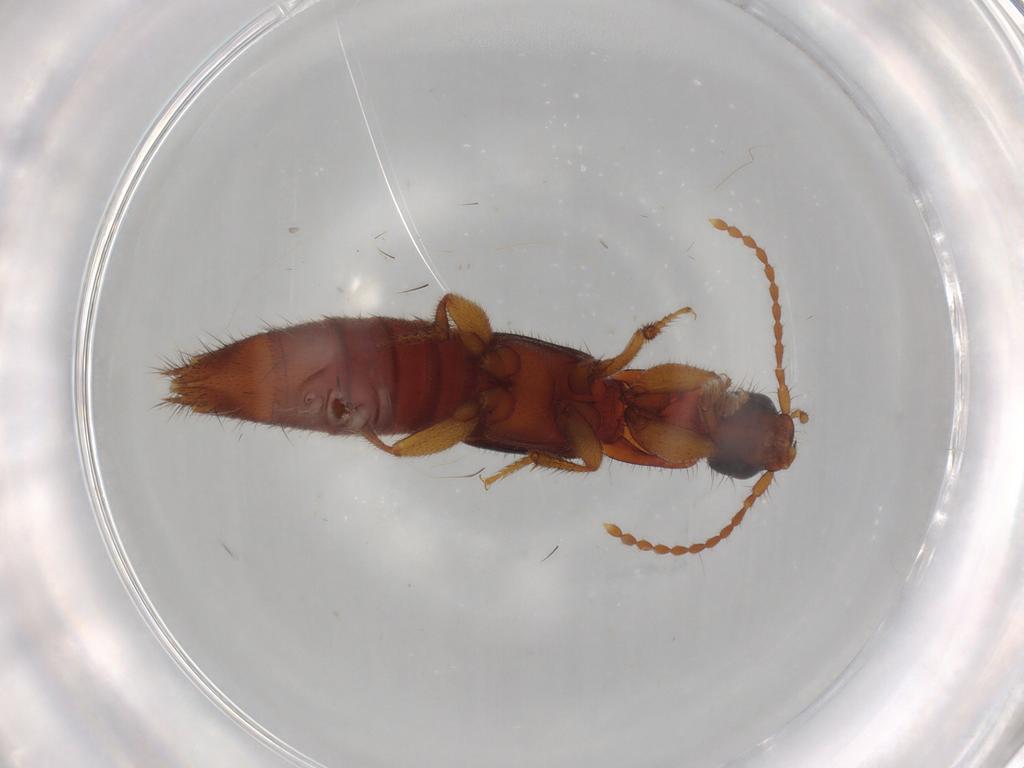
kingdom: Animalia
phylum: Arthropoda
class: Insecta
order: Coleoptera
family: Staphylinidae
